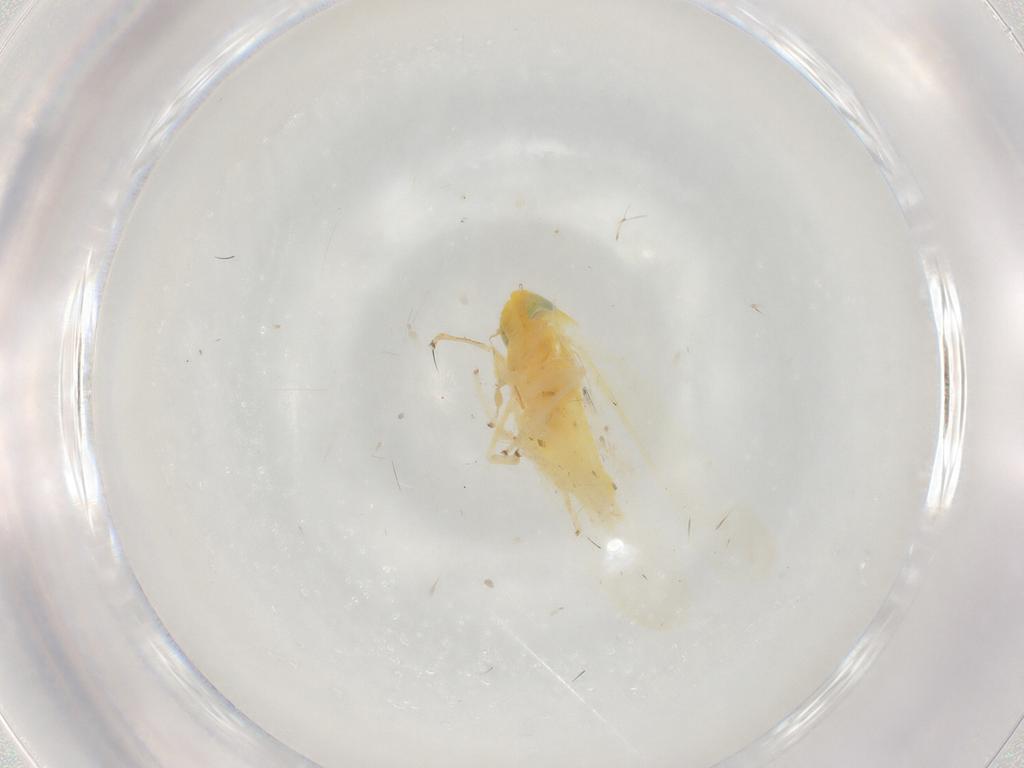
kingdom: Animalia
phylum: Arthropoda
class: Insecta
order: Hemiptera
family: Cicadellidae
